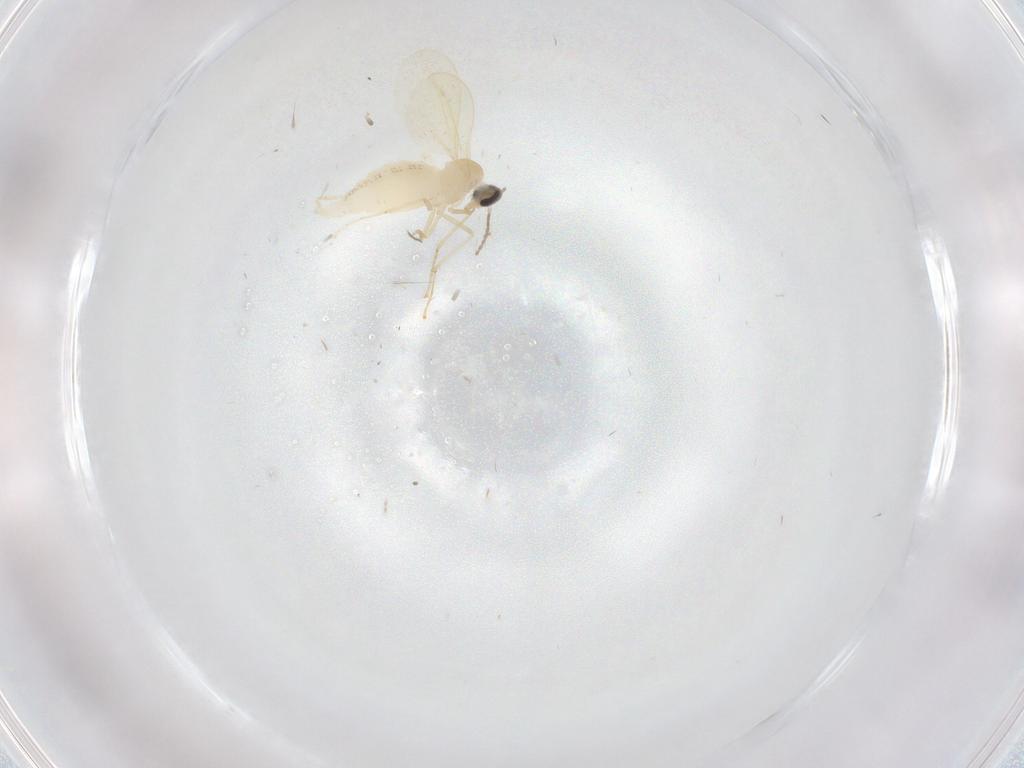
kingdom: Animalia
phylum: Arthropoda
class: Insecta
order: Diptera
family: Cecidomyiidae
